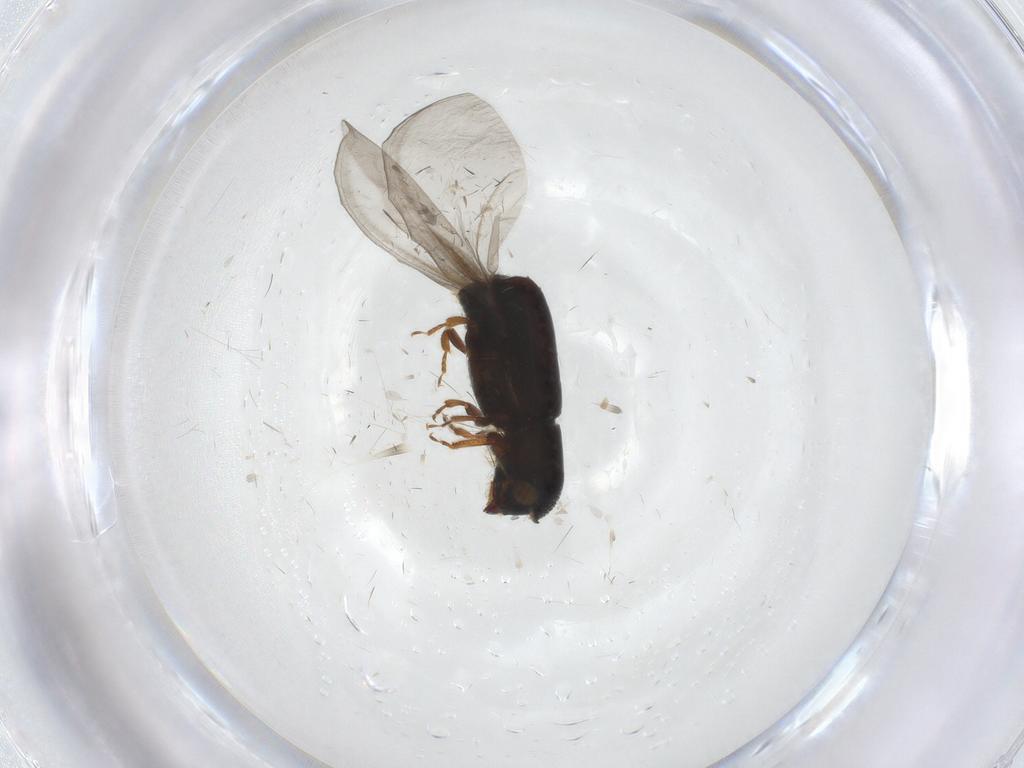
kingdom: Animalia
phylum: Arthropoda
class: Insecta
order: Coleoptera
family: Curculionidae
